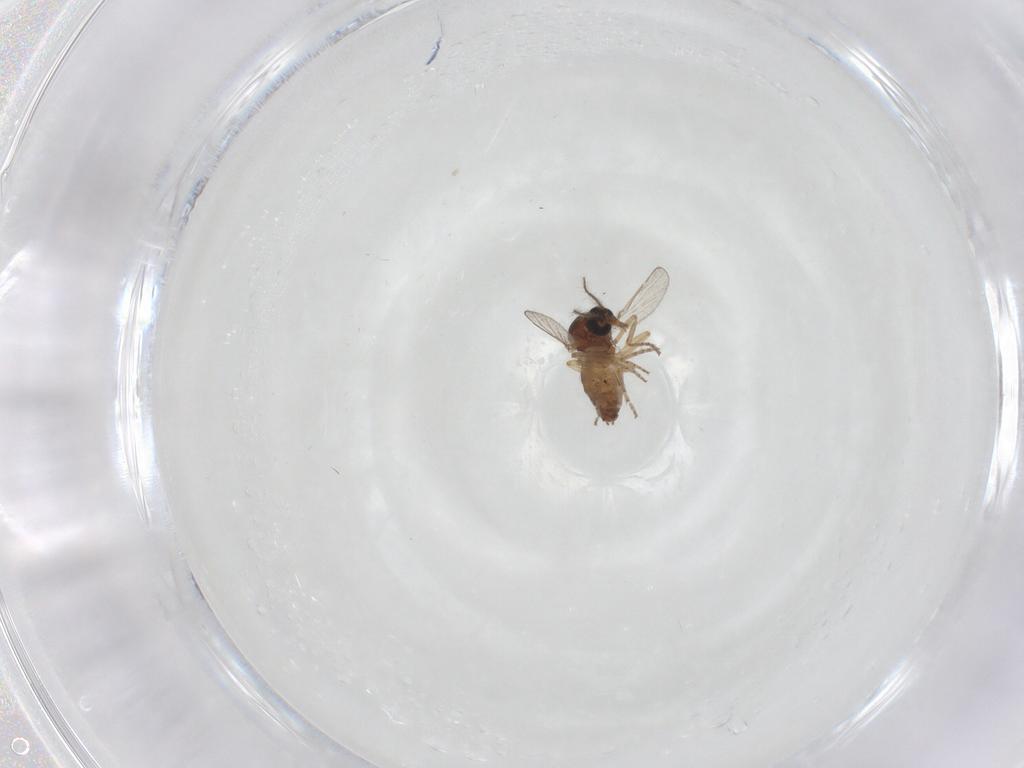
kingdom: Animalia
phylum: Arthropoda
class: Insecta
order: Diptera
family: Ceratopogonidae
